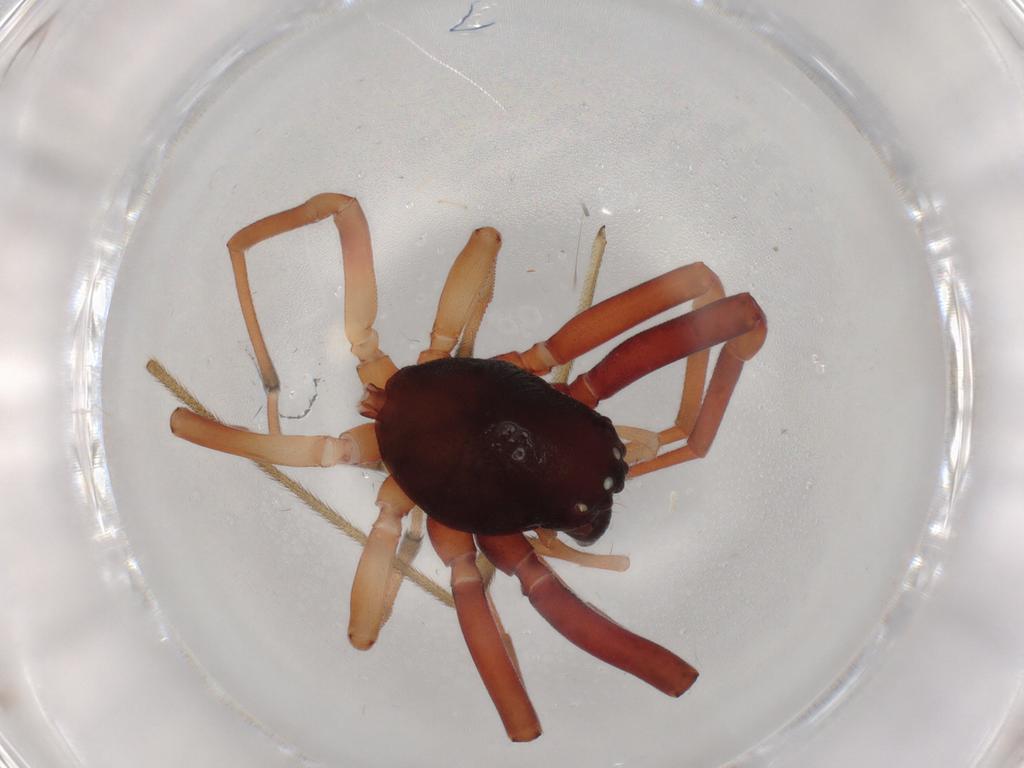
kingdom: Animalia
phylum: Arthropoda
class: Arachnida
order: Araneae
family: Trachelidae
